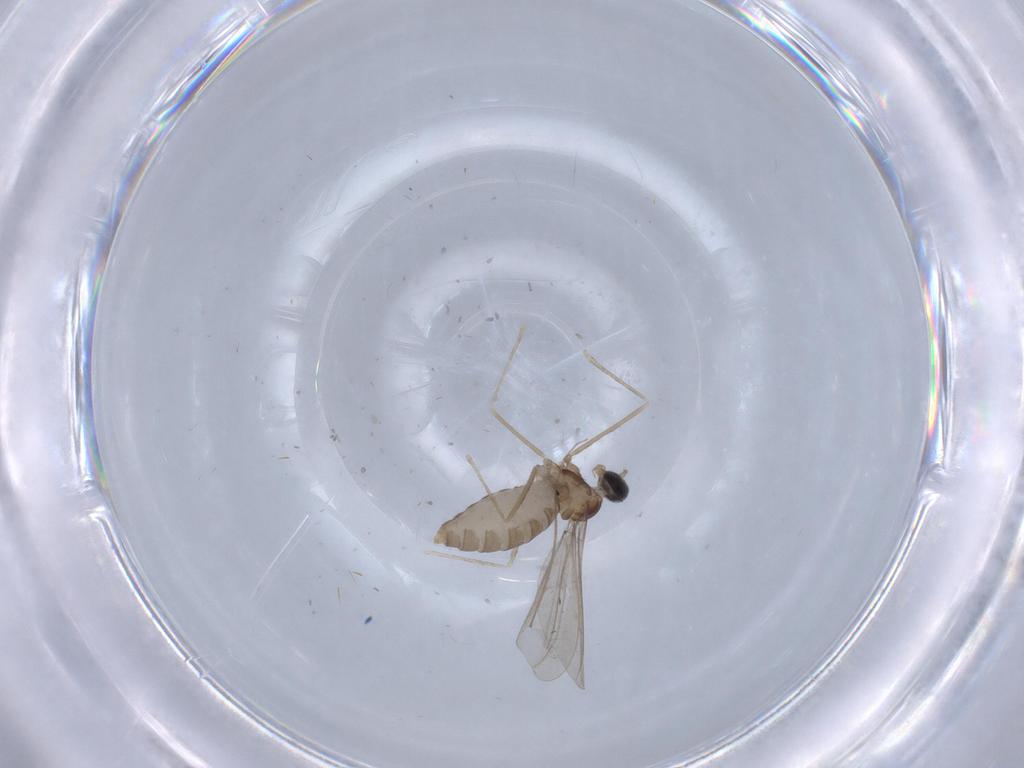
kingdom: Animalia
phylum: Arthropoda
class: Insecta
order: Diptera
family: Cecidomyiidae
